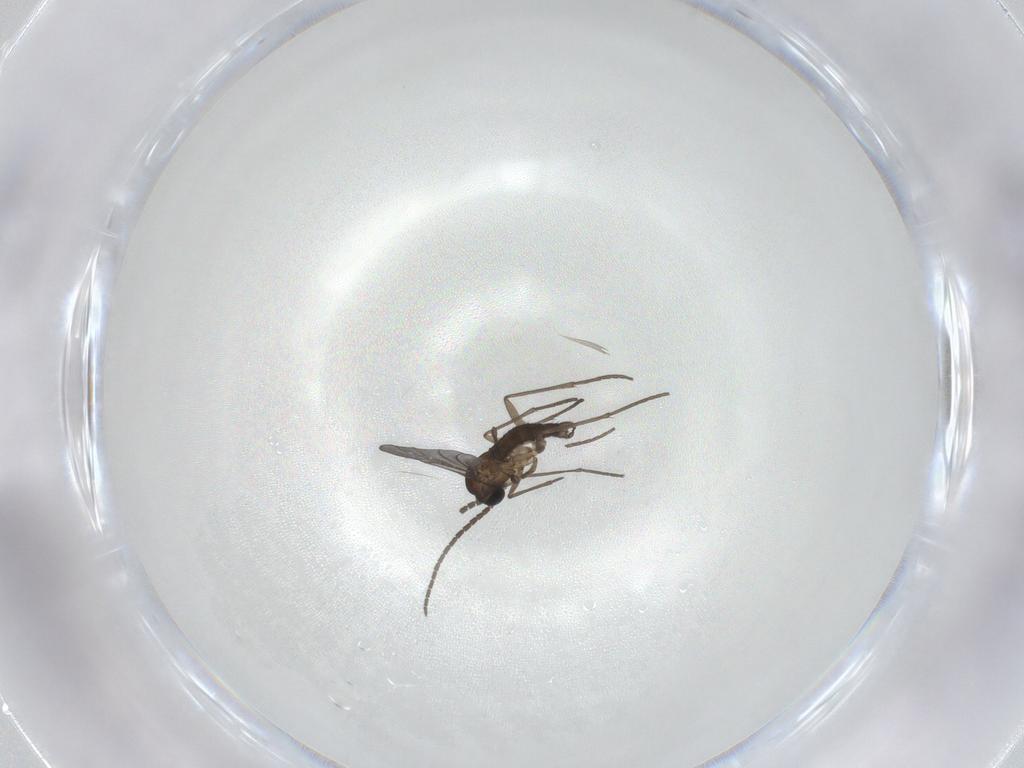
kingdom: Animalia
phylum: Arthropoda
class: Insecta
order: Diptera
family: Sciaridae
